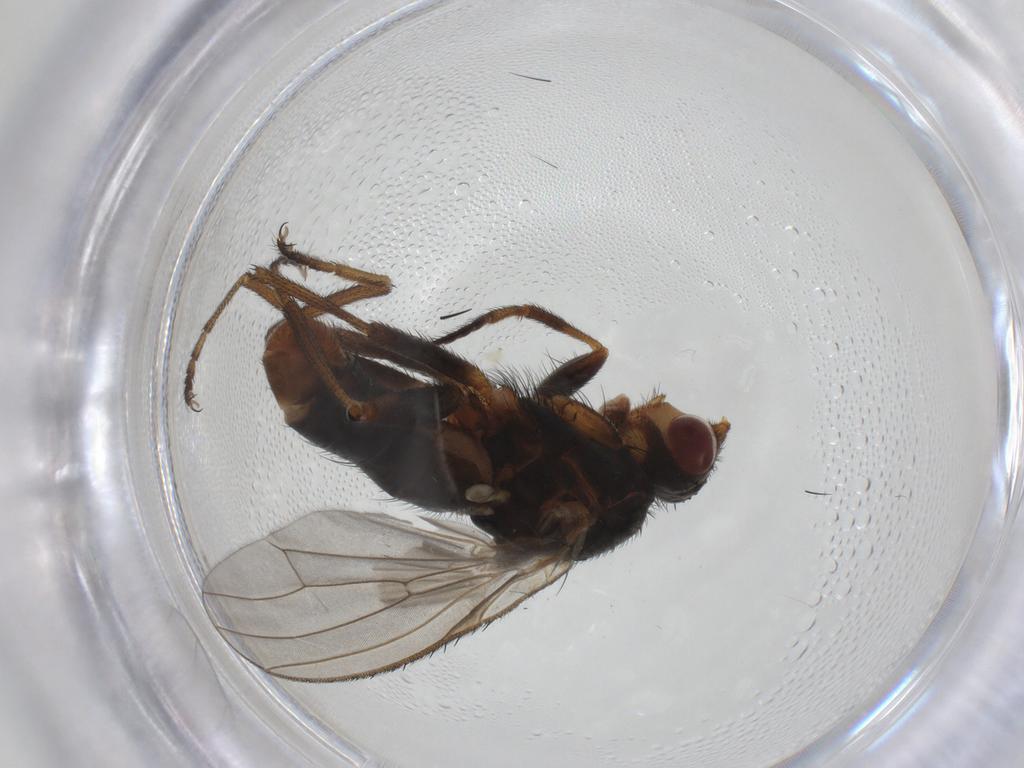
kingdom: Animalia
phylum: Arthropoda
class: Insecta
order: Diptera
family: Heleomyzidae
